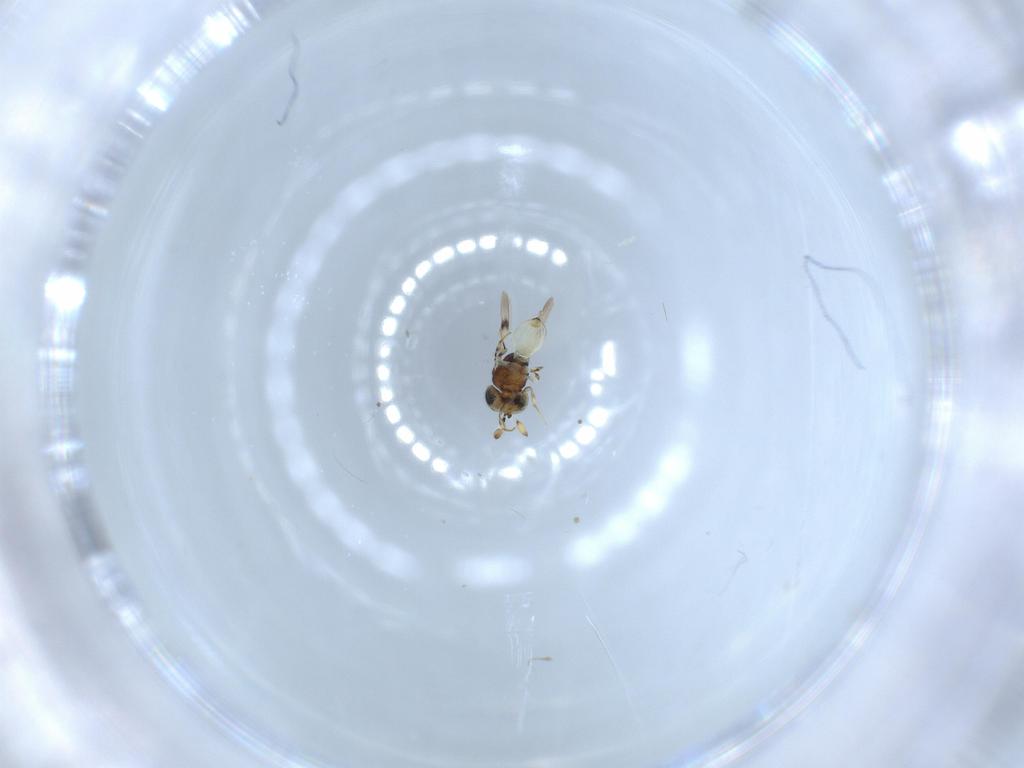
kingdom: Animalia
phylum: Arthropoda
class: Insecta
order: Hymenoptera
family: Scelionidae
